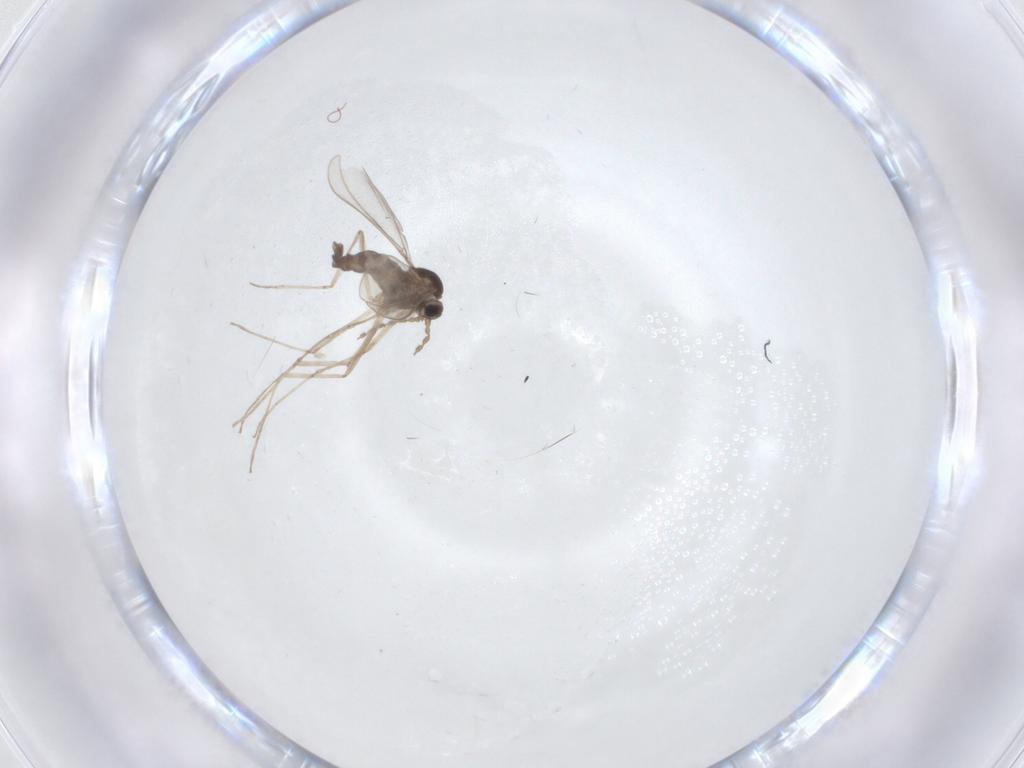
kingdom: Animalia
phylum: Arthropoda
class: Insecta
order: Diptera
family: Cecidomyiidae
